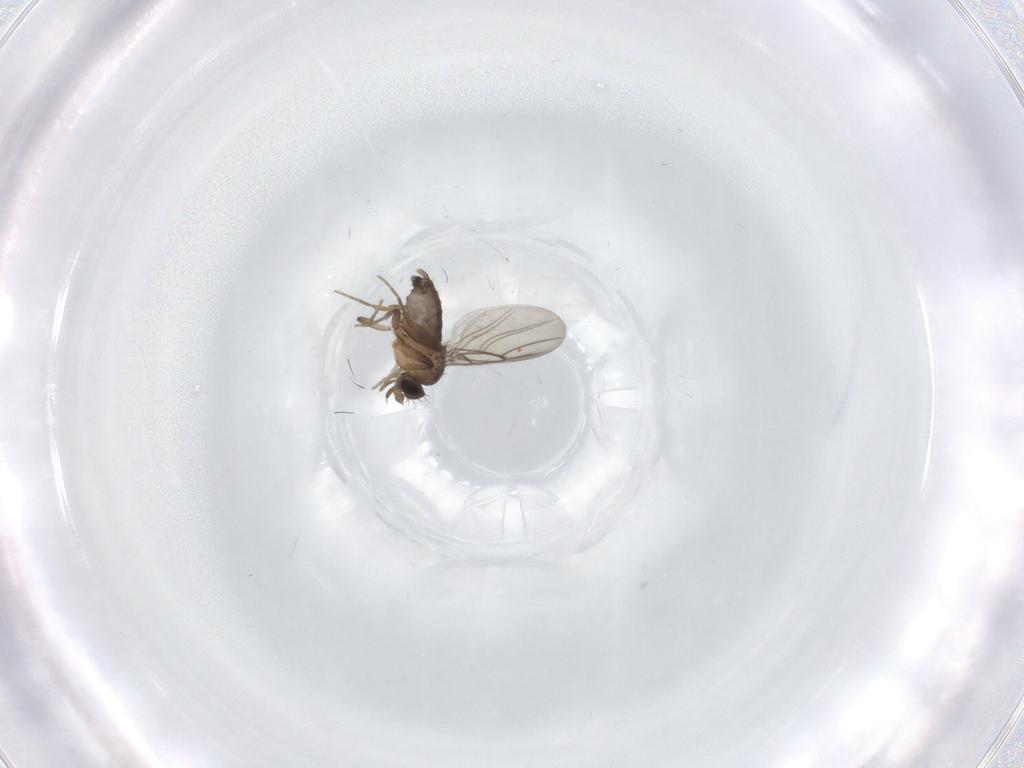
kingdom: Animalia
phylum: Arthropoda
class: Insecta
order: Diptera
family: Phoridae
